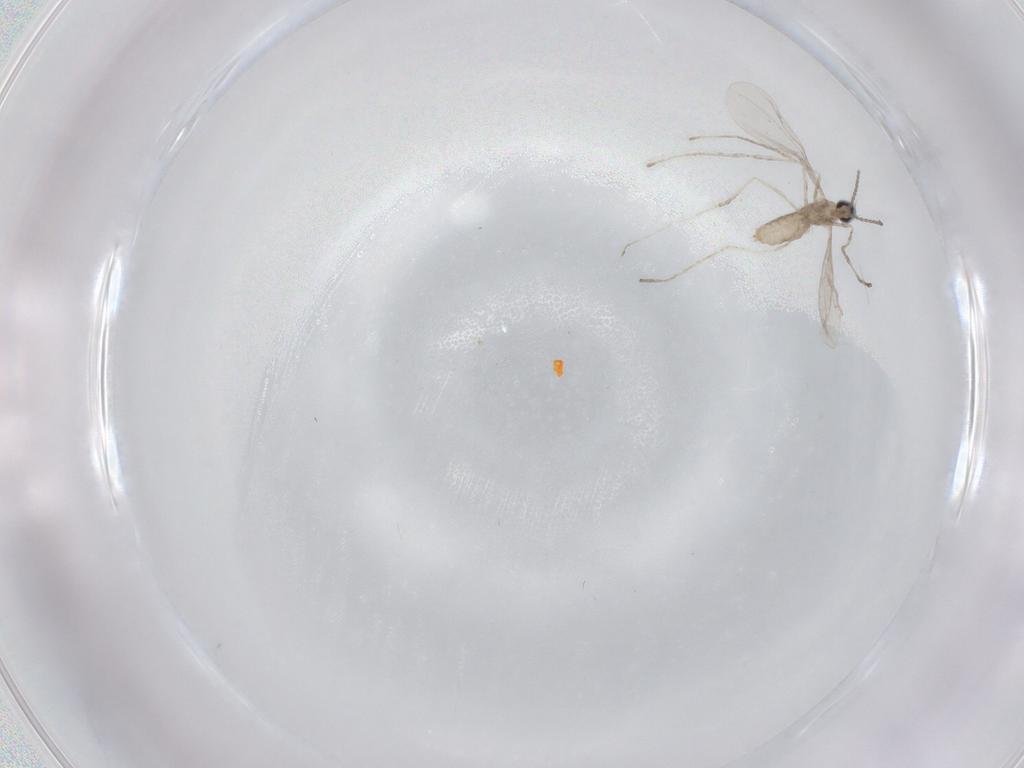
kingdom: Animalia
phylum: Arthropoda
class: Insecta
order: Diptera
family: Cecidomyiidae
